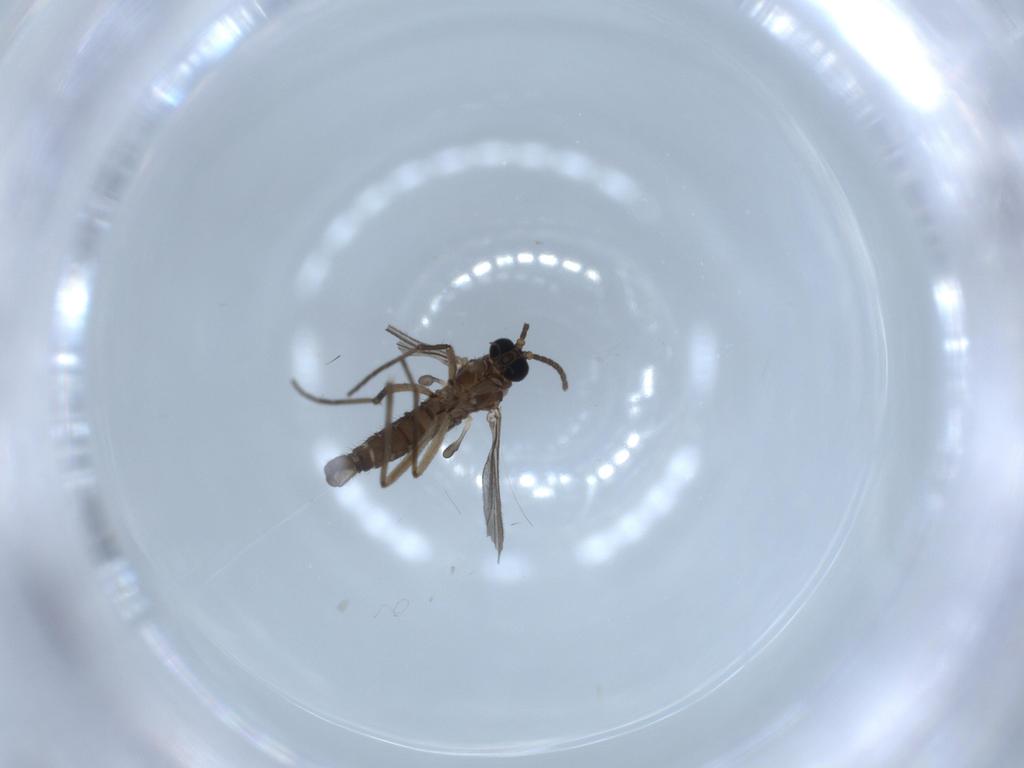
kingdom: Animalia
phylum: Arthropoda
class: Insecta
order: Diptera
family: Sciaridae
